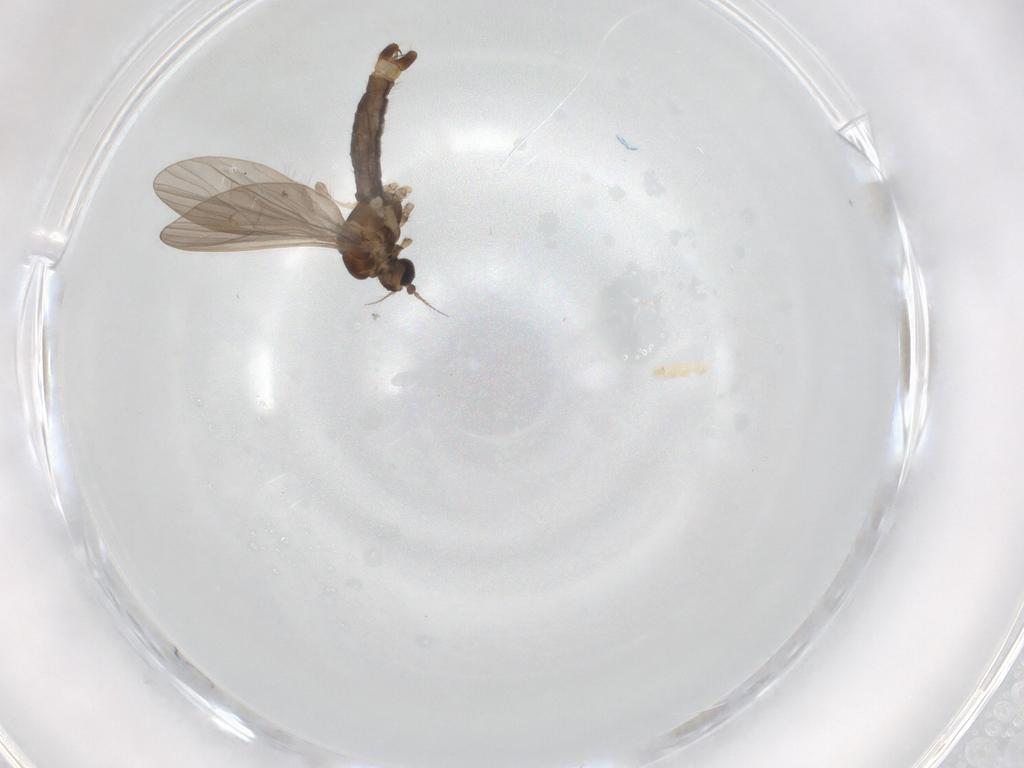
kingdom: Animalia
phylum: Arthropoda
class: Insecta
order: Diptera
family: Limoniidae
